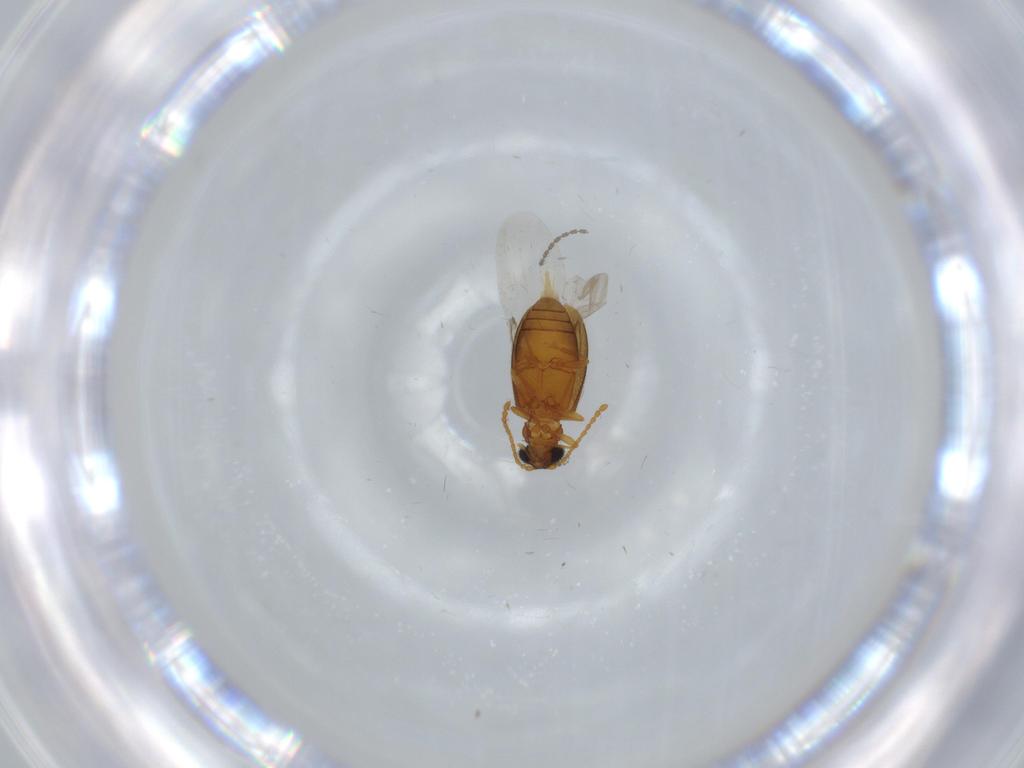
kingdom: Animalia
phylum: Arthropoda
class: Insecta
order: Coleoptera
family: Aderidae
